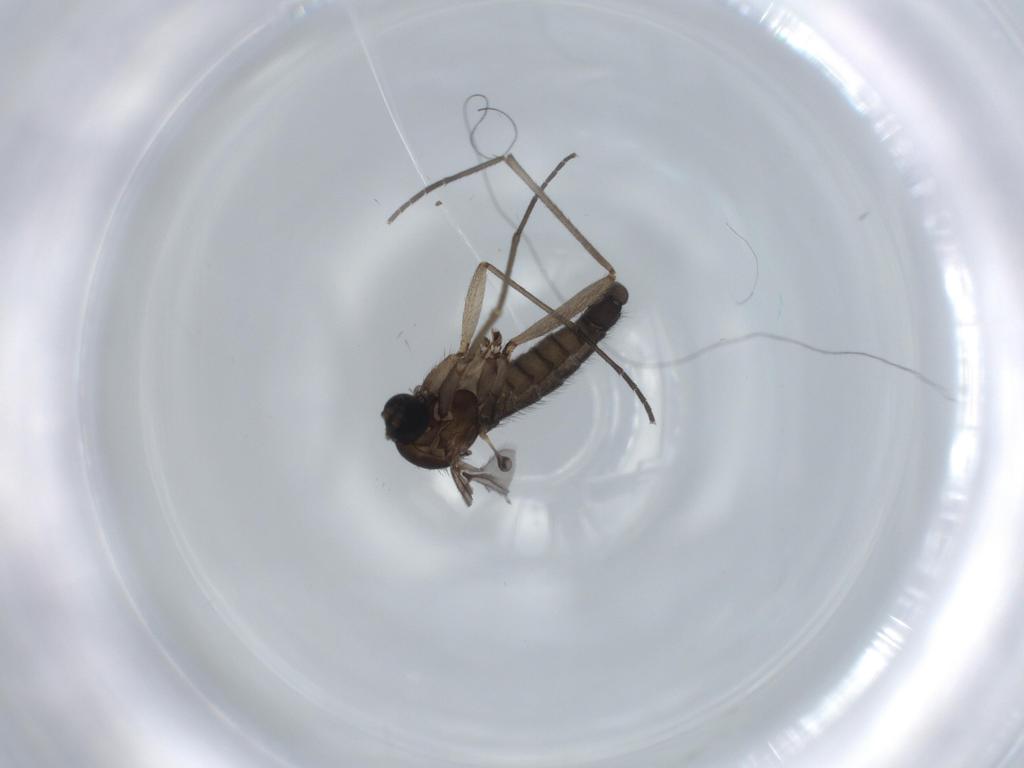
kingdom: Animalia
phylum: Arthropoda
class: Insecta
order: Diptera
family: Sciaridae
